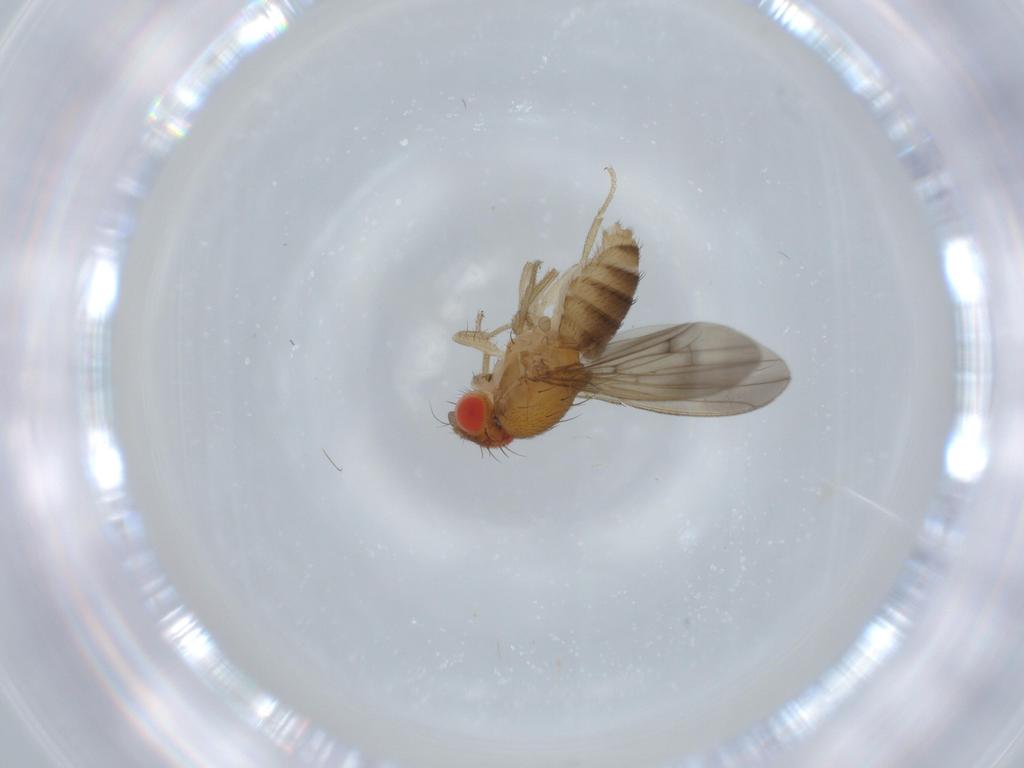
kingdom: Animalia
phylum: Arthropoda
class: Insecta
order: Diptera
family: Drosophilidae
